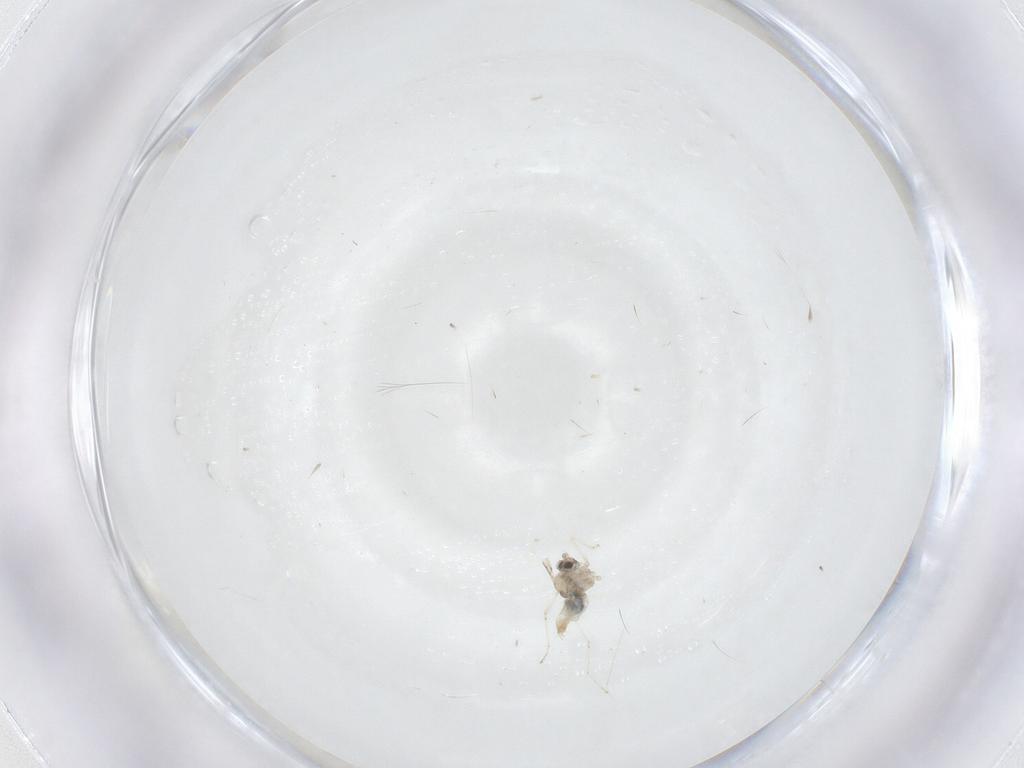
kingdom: Animalia
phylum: Arthropoda
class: Insecta
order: Diptera
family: Cecidomyiidae
